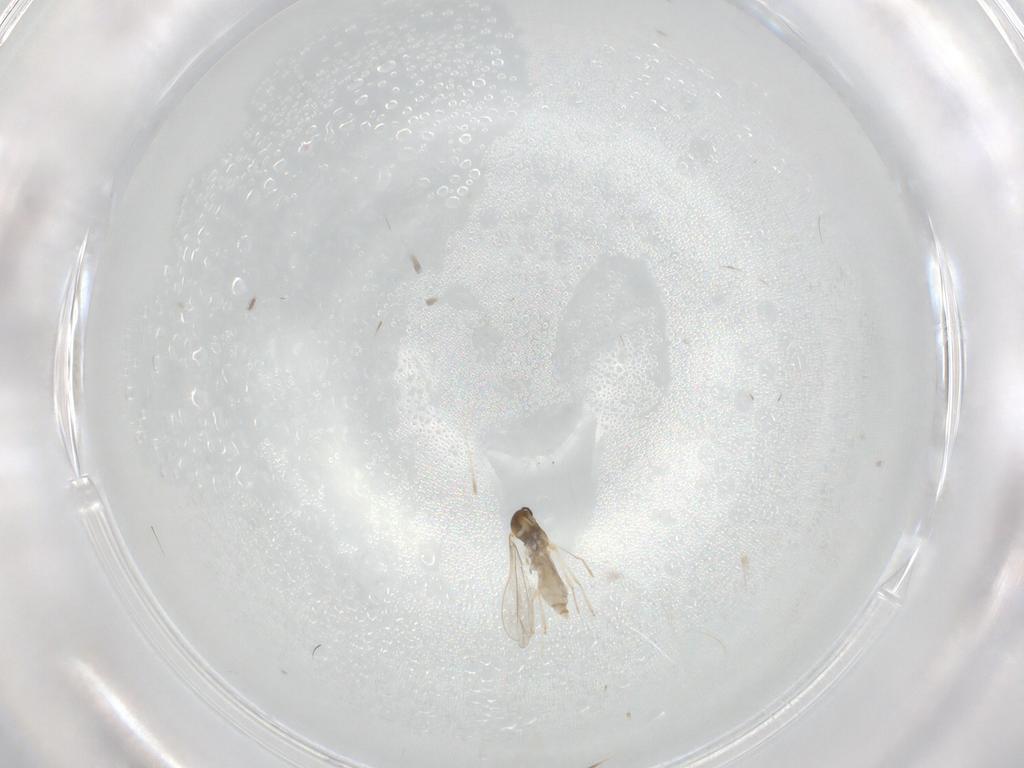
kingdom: Animalia
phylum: Arthropoda
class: Insecta
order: Diptera
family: Cecidomyiidae
